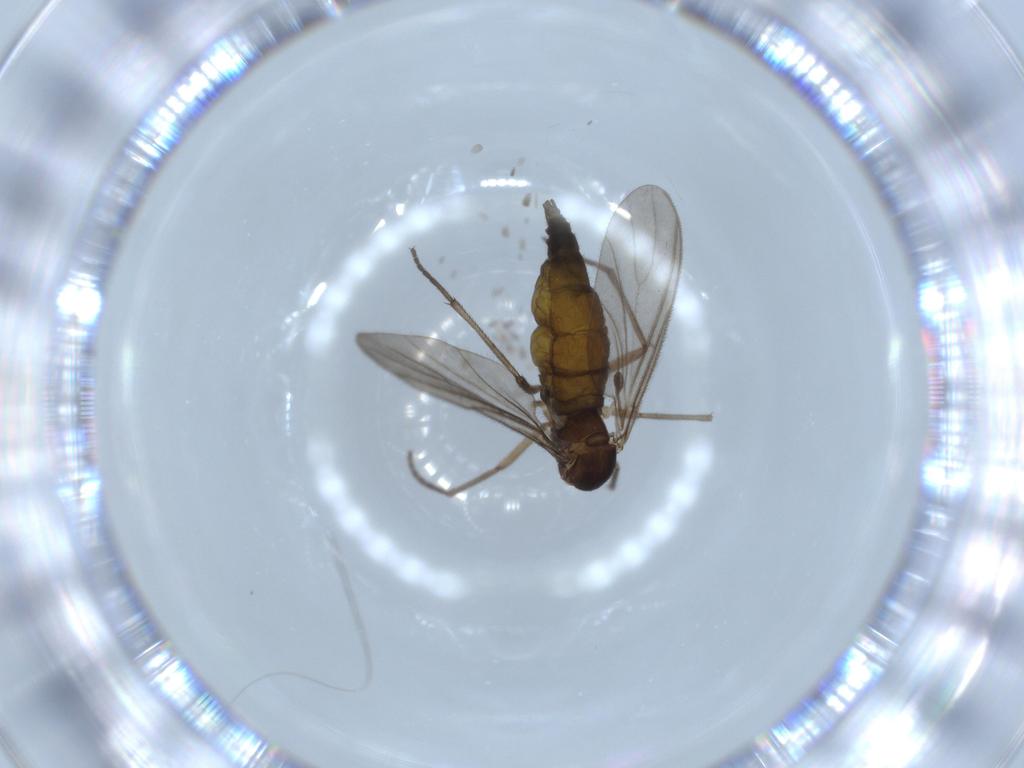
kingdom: Animalia
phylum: Arthropoda
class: Insecta
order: Diptera
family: Sciaridae
